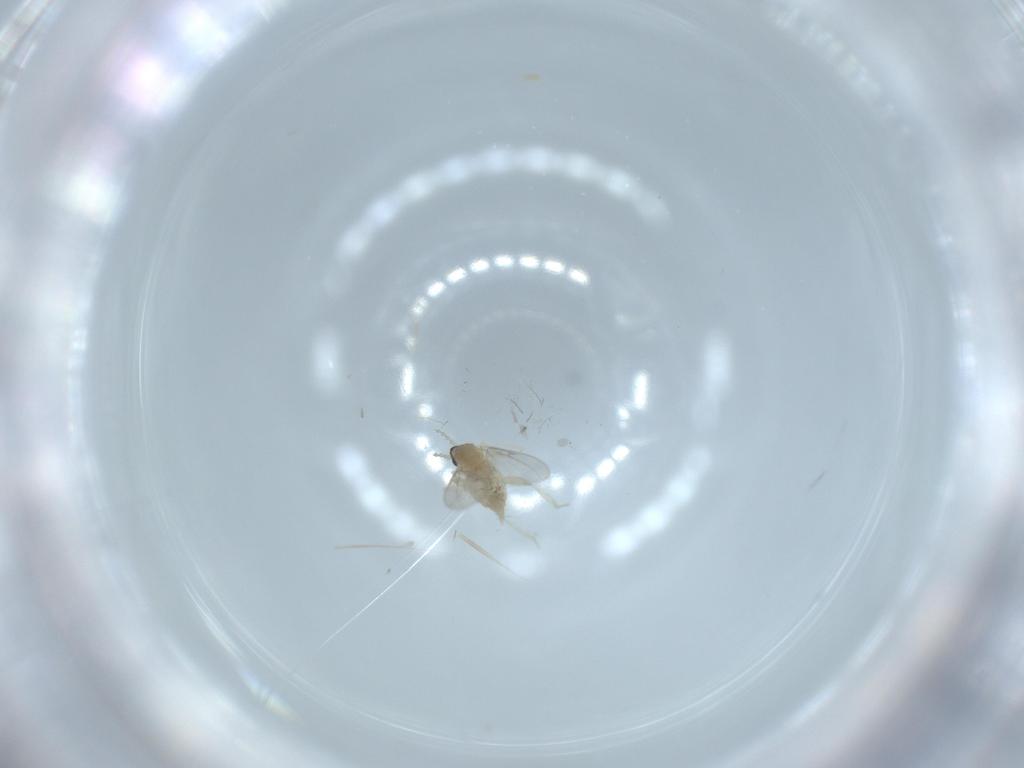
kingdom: Animalia
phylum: Arthropoda
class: Insecta
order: Diptera
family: Cecidomyiidae
